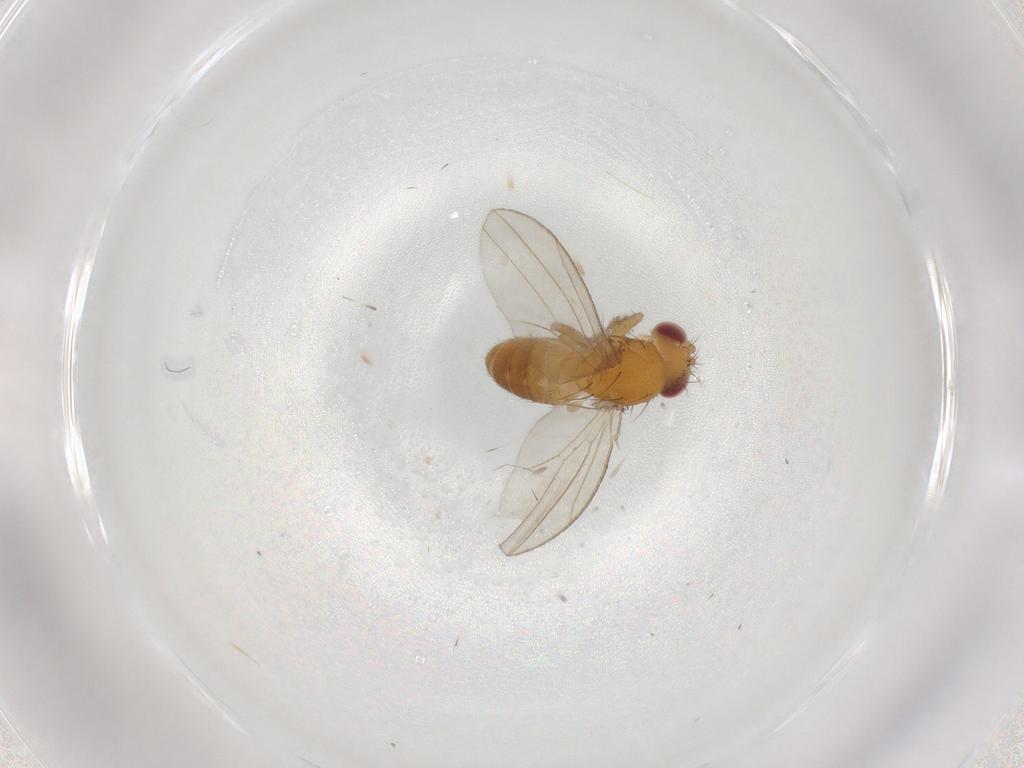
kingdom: Animalia
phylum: Arthropoda
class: Insecta
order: Diptera
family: Drosophilidae
